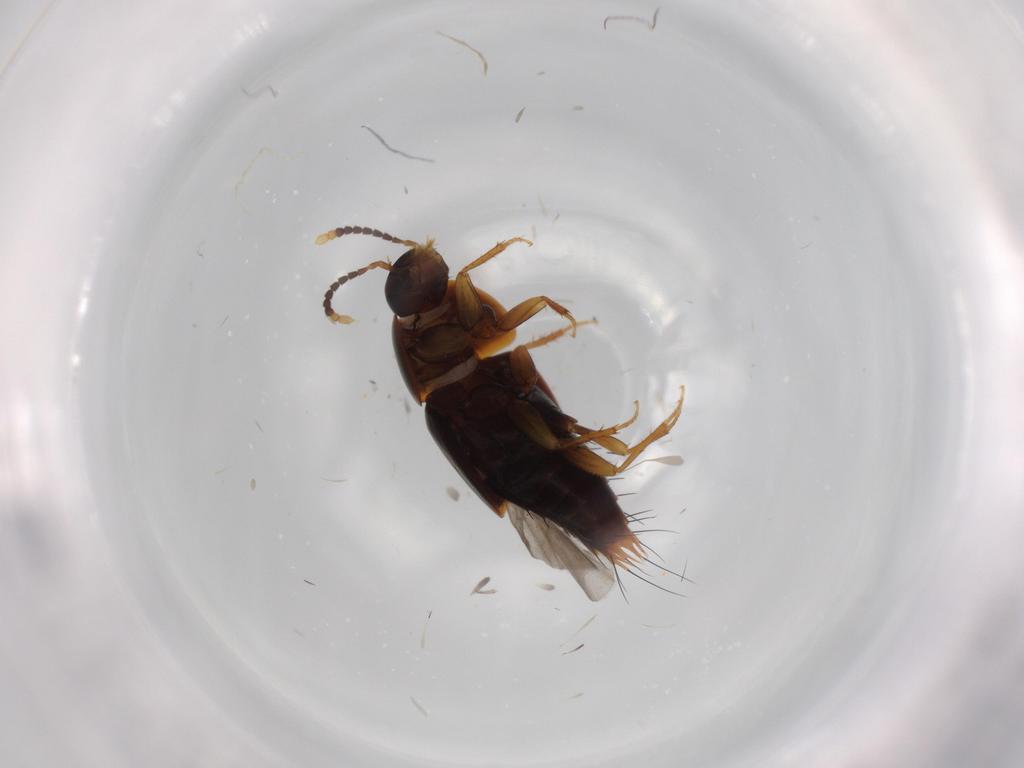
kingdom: Animalia
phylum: Arthropoda
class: Insecta
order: Coleoptera
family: Staphylinidae
